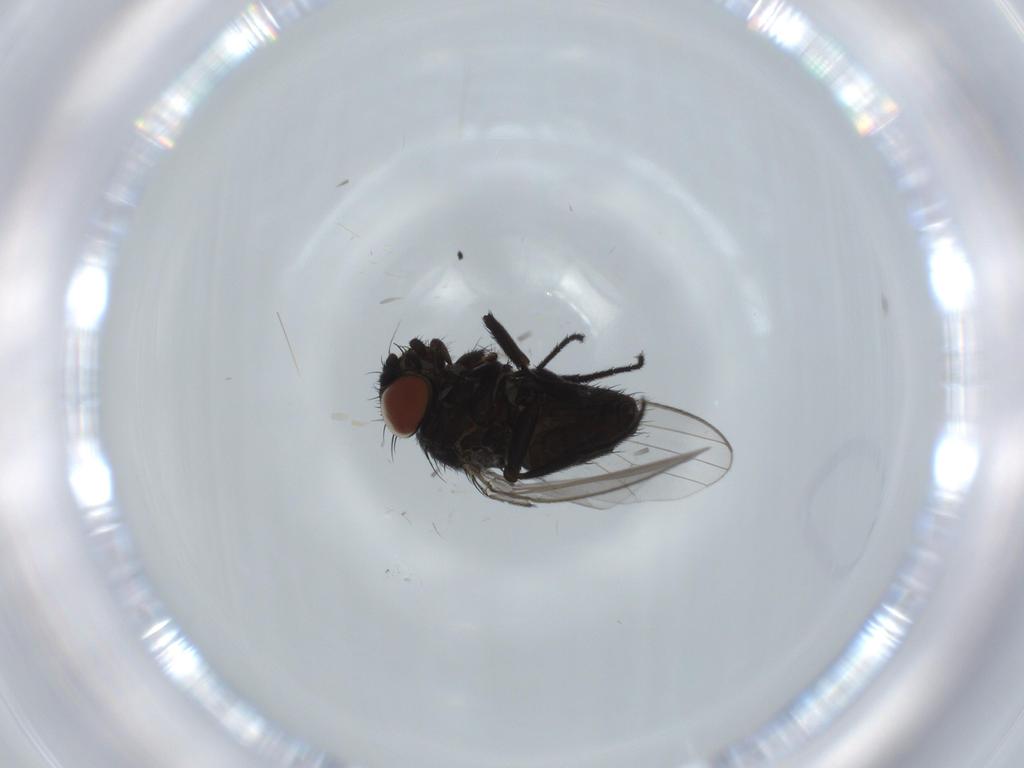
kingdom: Animalia
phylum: Arthropoda
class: Insecta
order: Diptera
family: Milichiidae
